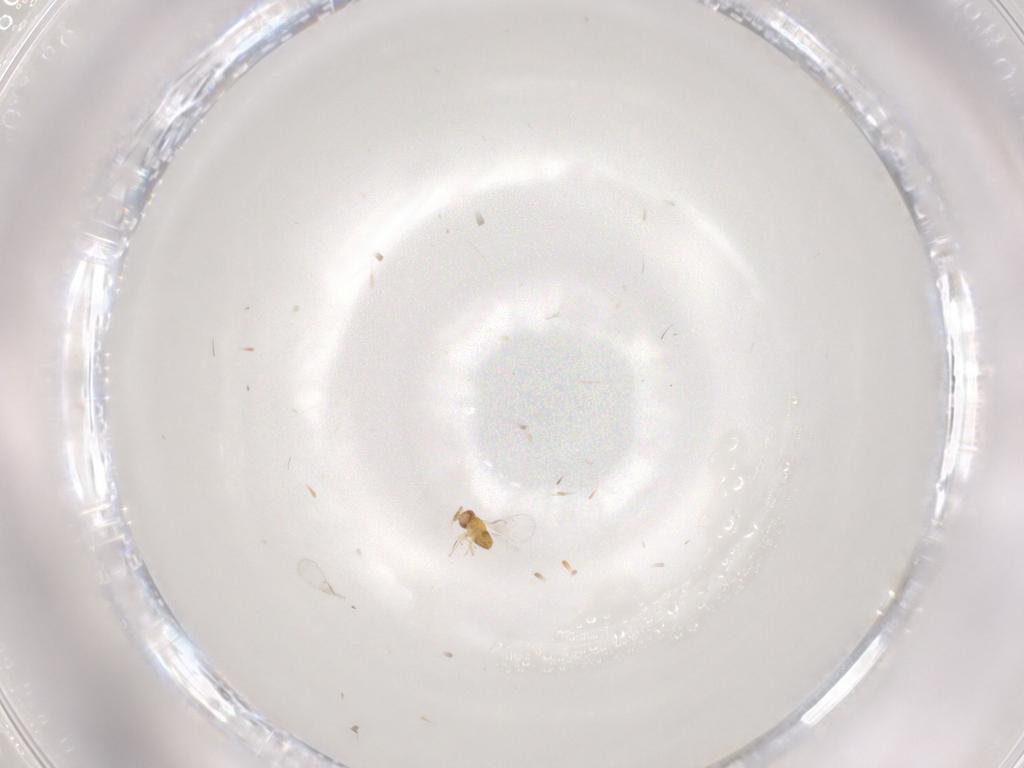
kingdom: Animalia
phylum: Arthropoda
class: Insecta
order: Hymenoptera
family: Trichogrammatidae
